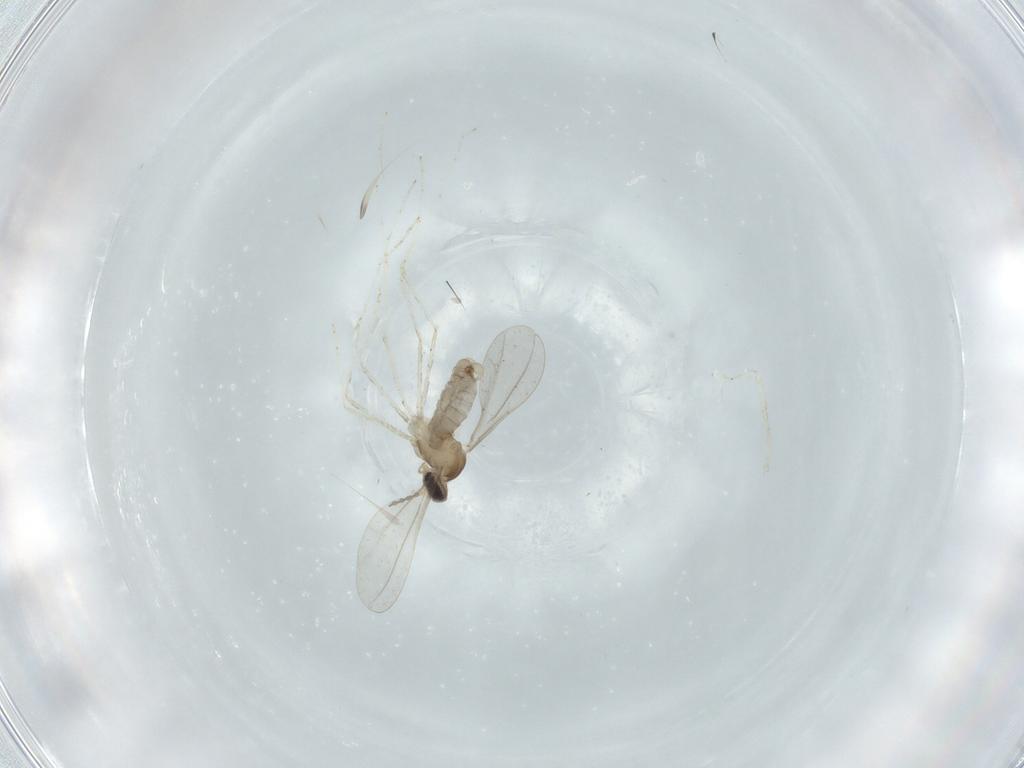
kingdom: Animalia
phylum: Arthropoda
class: Insecta
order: Diptera
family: Cecidomyiidae
